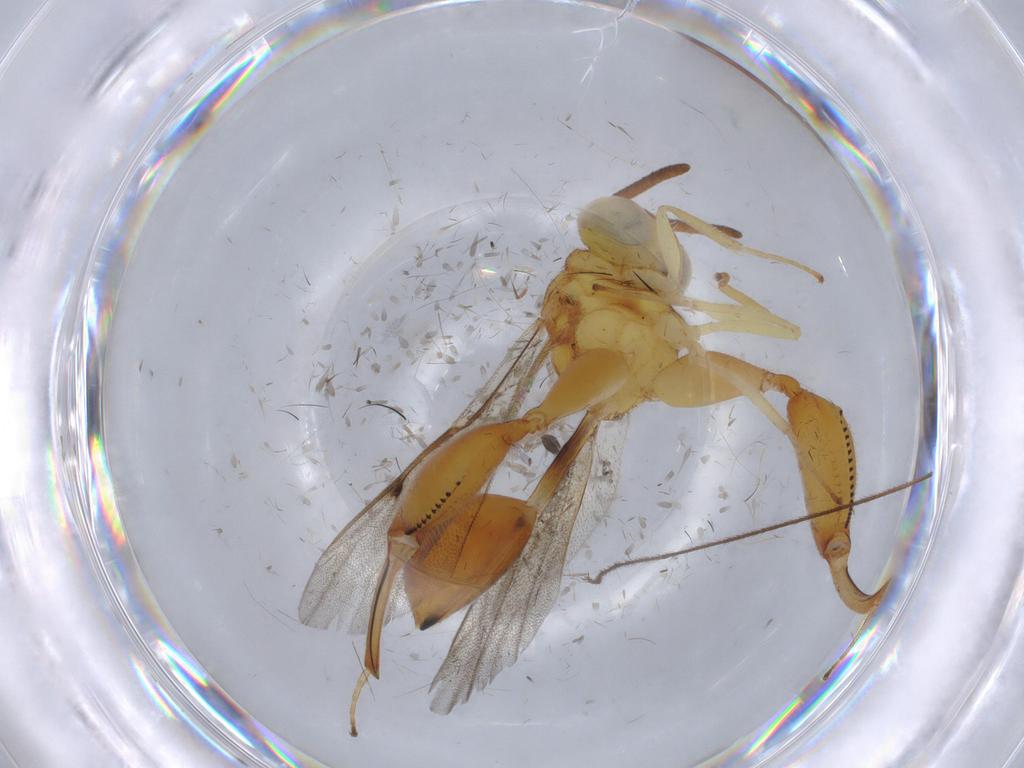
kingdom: Animalia
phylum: Arthropoda
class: Insecta
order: Hymenoptera
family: Chalcididae
